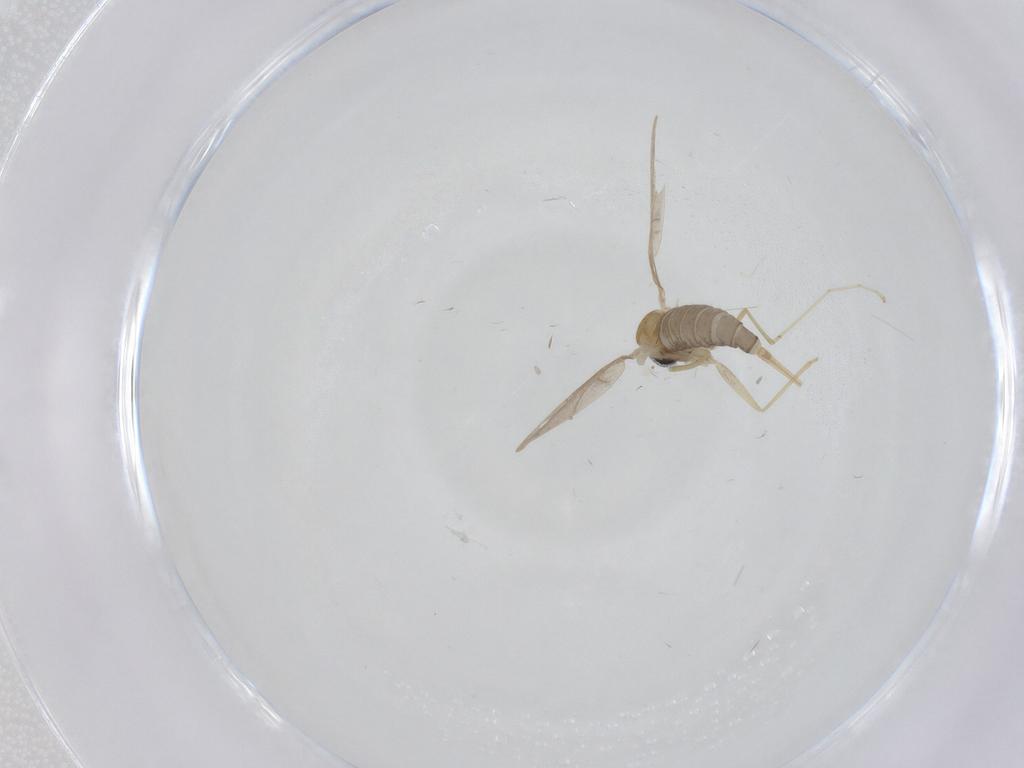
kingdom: Animalia
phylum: Arthropoda
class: Insecta
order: Diptera
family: Cecidomyiidae
